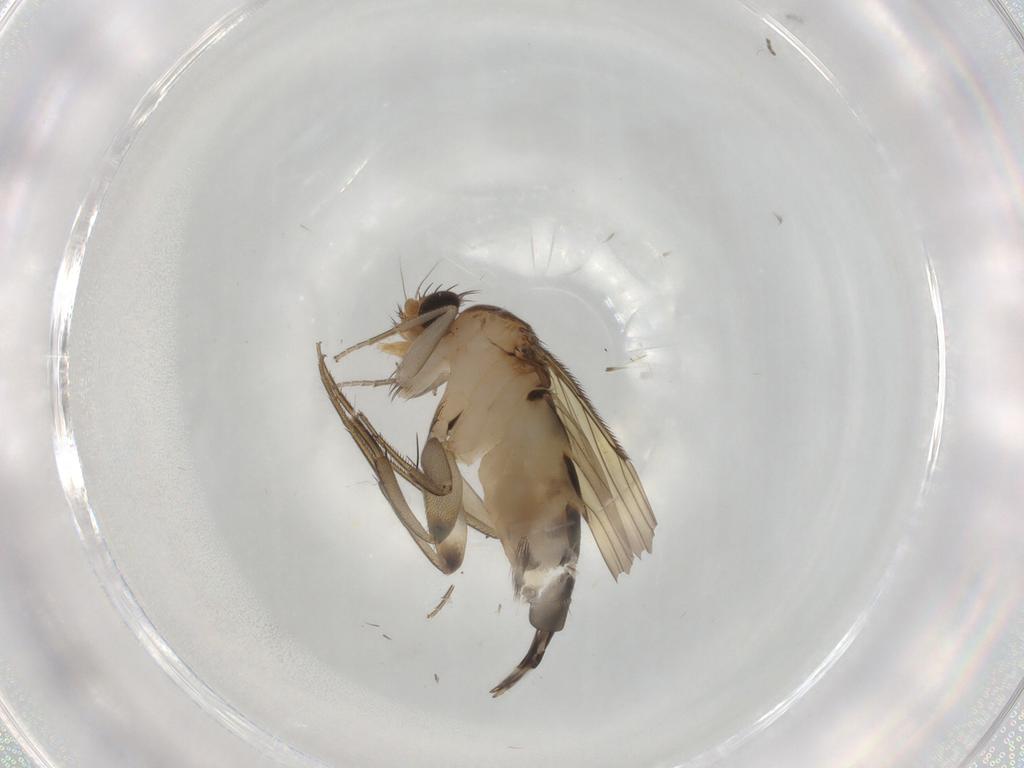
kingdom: Animalia
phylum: Arthropoda
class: Insecta
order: Diptera
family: Phoridae
